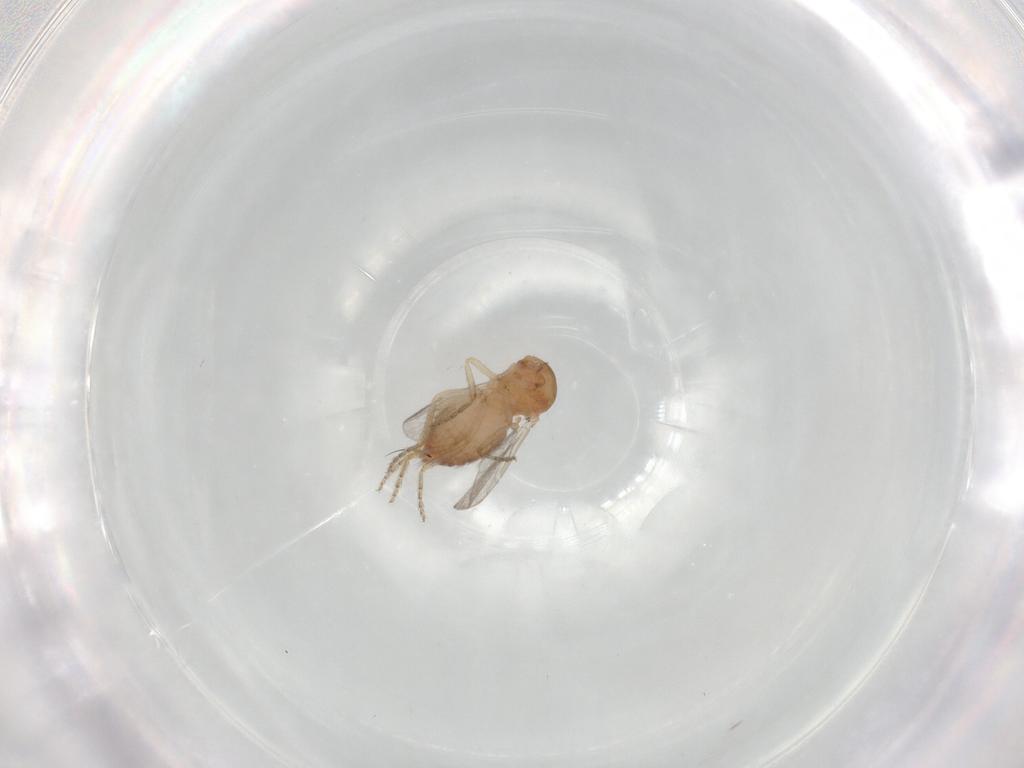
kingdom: Animalia
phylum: Arthropoda
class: Insecta
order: Diptera
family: Ceratopogonidae
